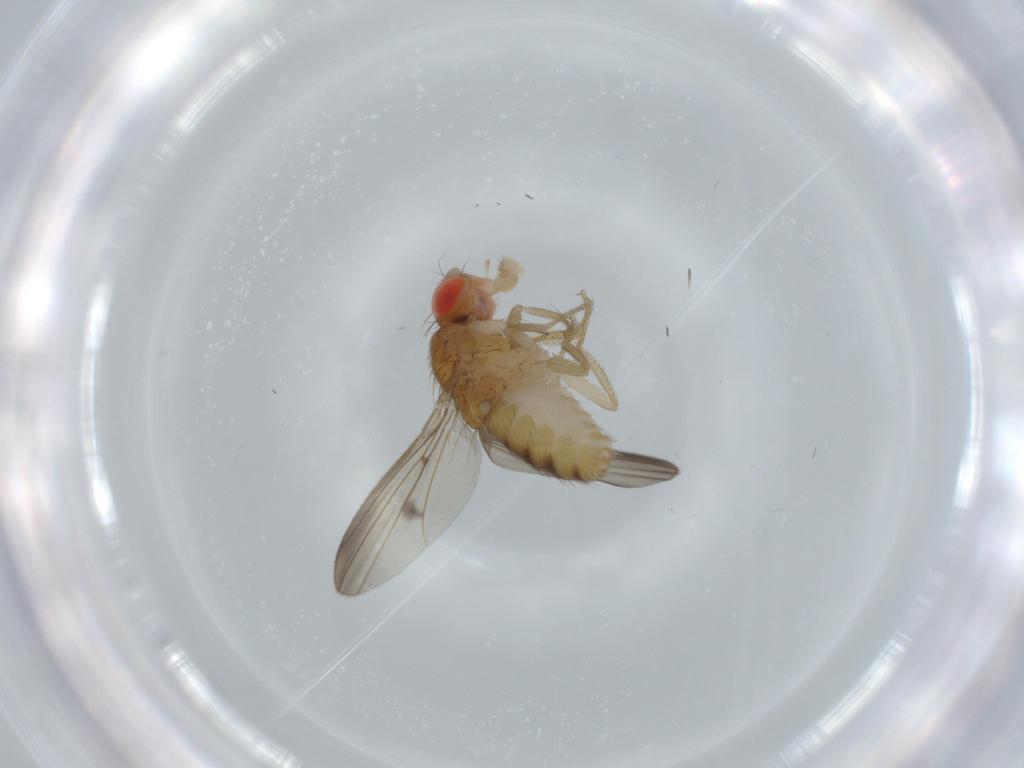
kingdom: Animalia
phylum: Arthropoda
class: Insecta
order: Diptera
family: Drosophilidae
